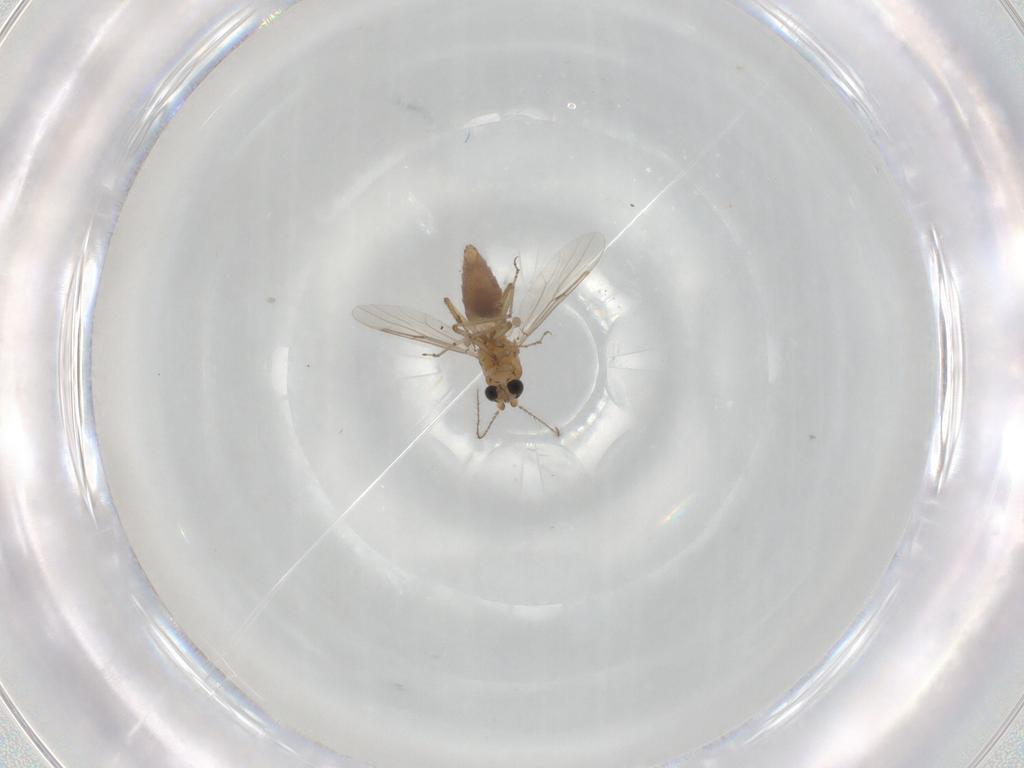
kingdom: Animalia
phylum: Arthropoda
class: Insecta
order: Diptera
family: Ceratopogonidae
